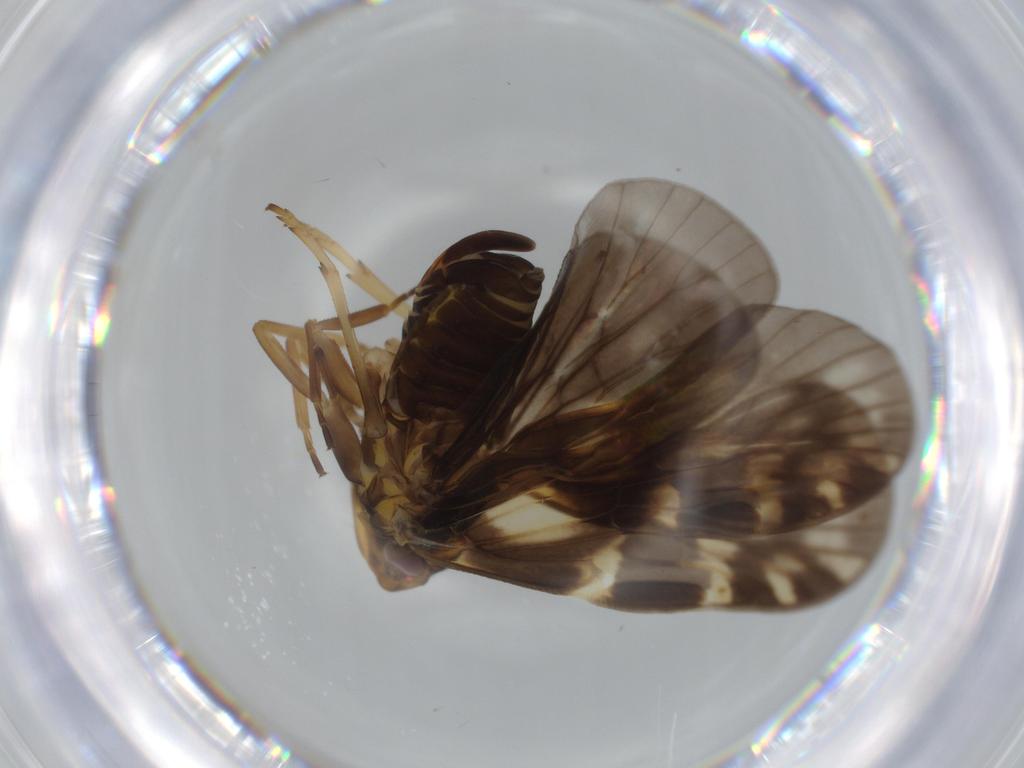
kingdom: Animalia
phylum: Arthropoda
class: Insecta
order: Hemiptera
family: Cixiidae
